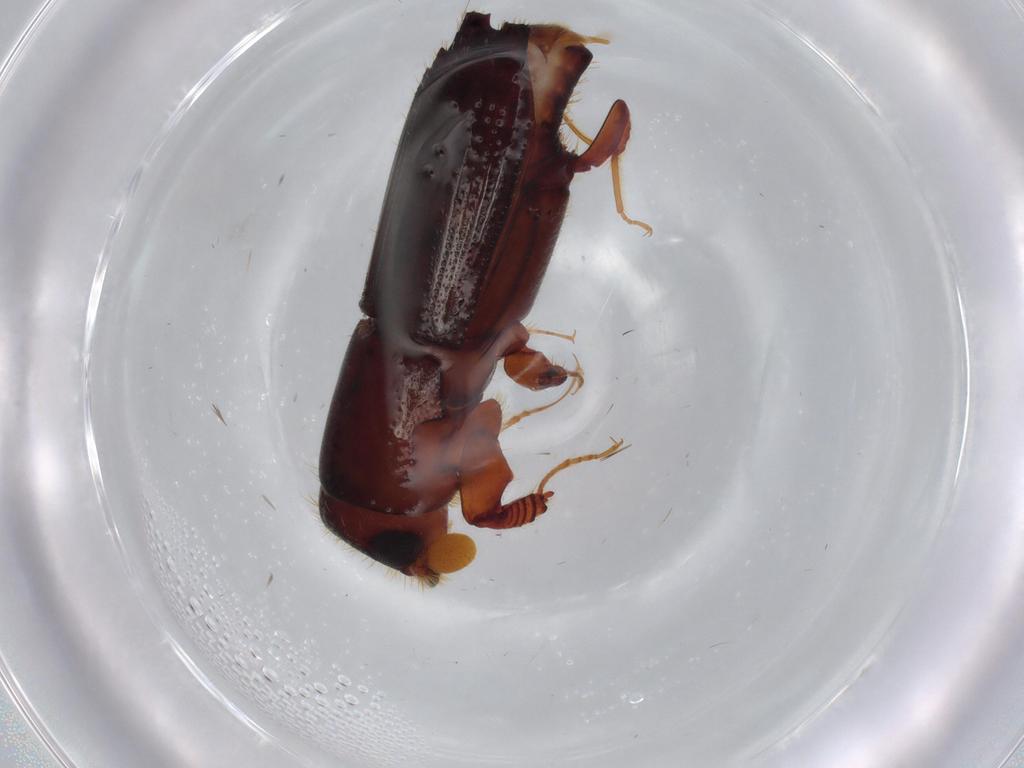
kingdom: Animalia
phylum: Arthropoda
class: Insecta
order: Coleoptera
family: Curculionidae
